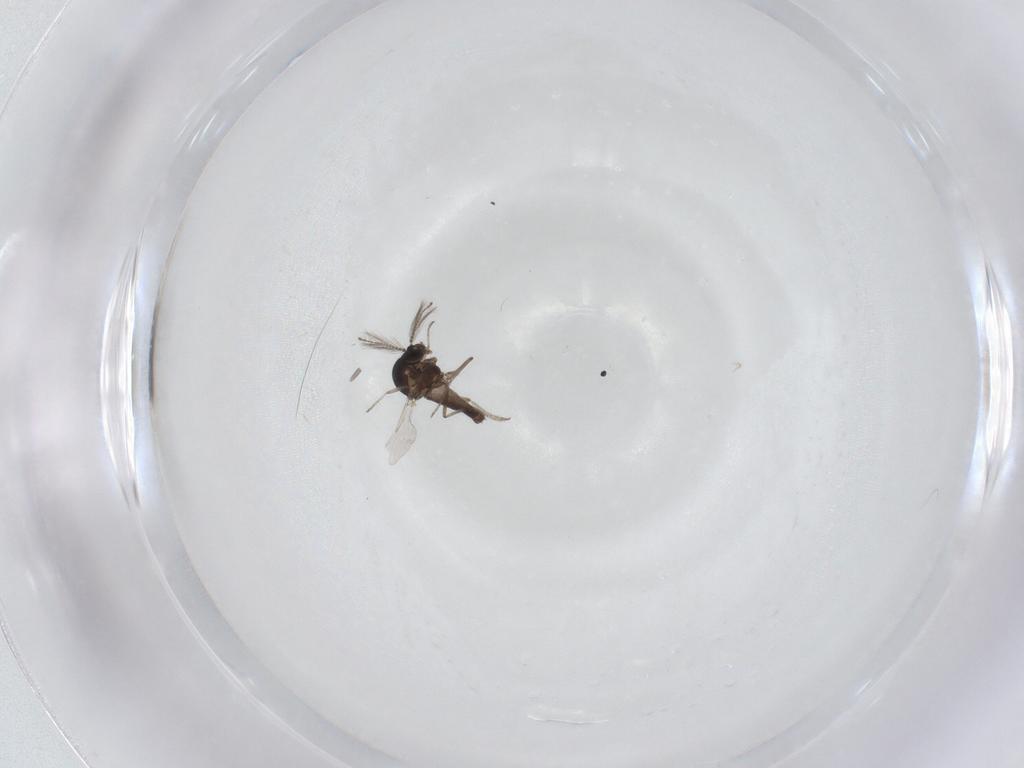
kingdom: Animalia
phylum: Arthropoda
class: Insecta
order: Diptera
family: Ceratopogonidae
